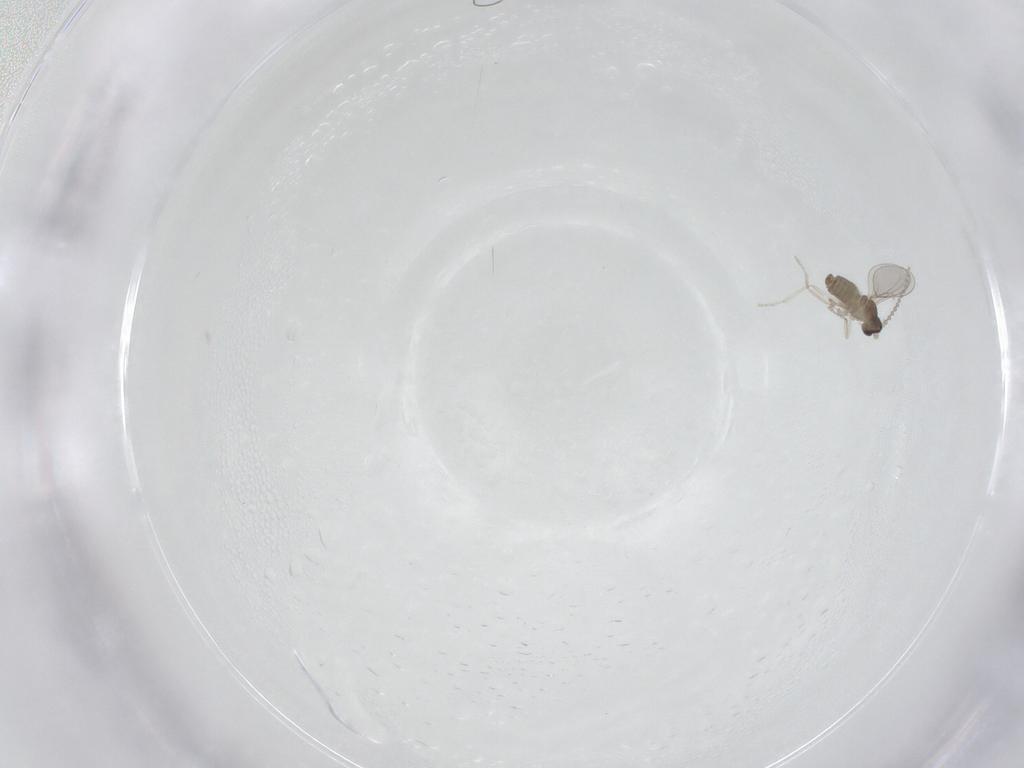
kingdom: Animalia
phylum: Arthropoda
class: Insecta
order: Diptera
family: Cecidomyiidae
